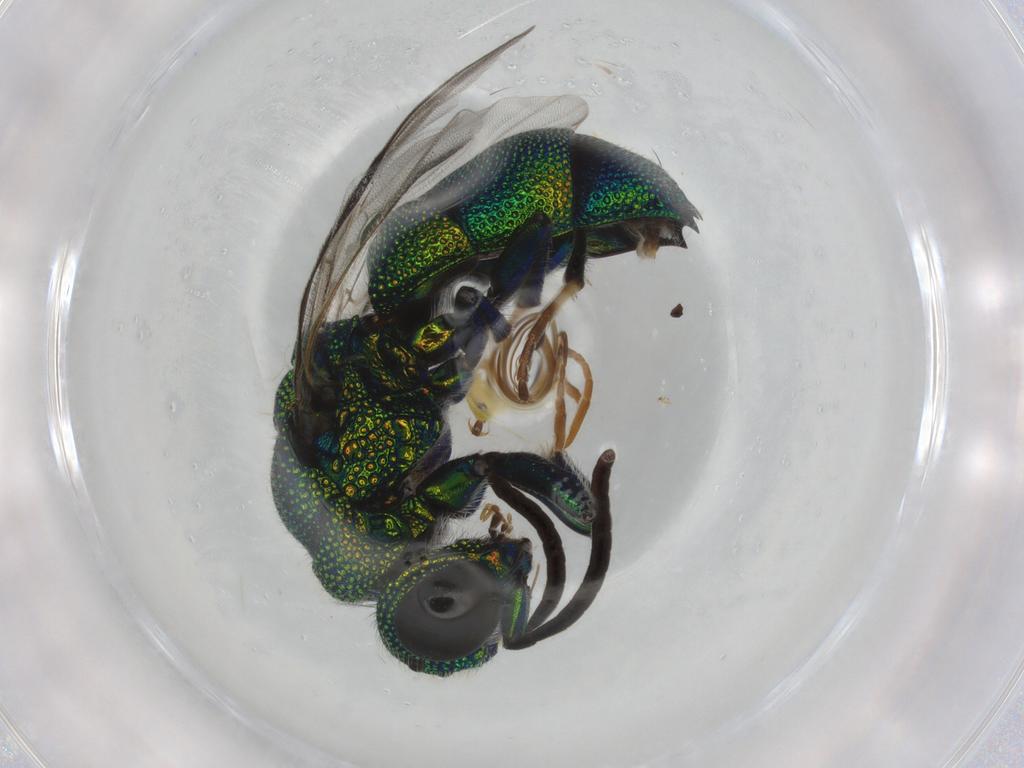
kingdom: Animalia
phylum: Arthropoda
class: Insecta
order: Hymenoptera
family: Chrysididae
